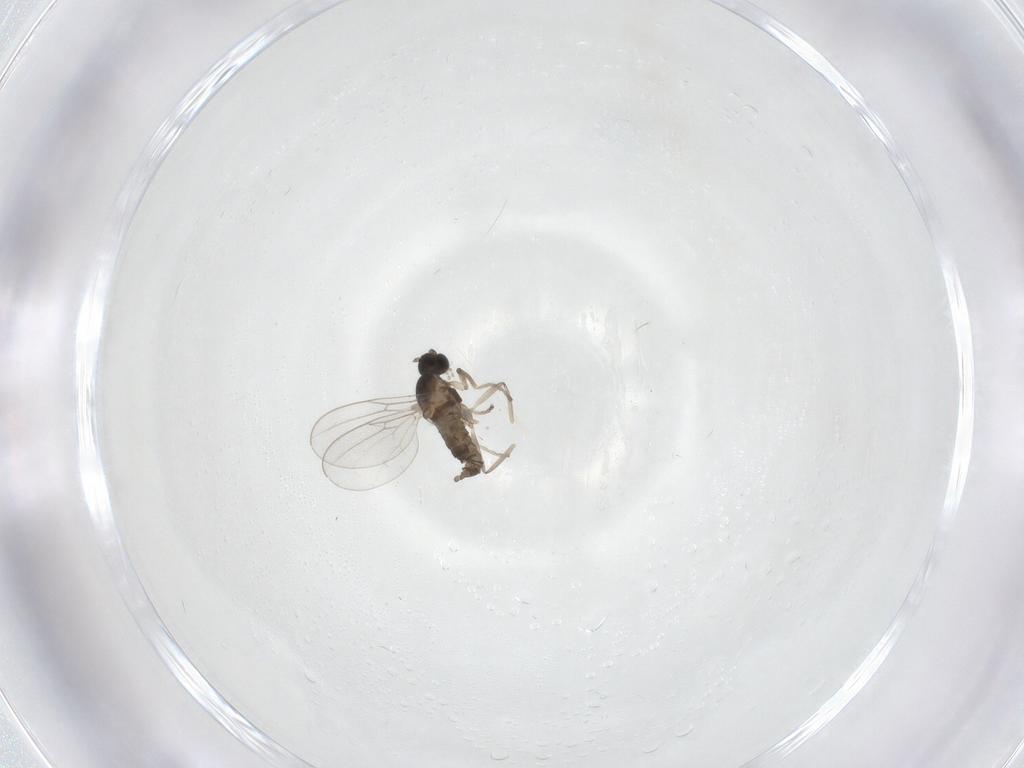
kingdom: Animalia
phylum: Arthropoda
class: Insecta
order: Diptera
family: Cecidomyiidae
